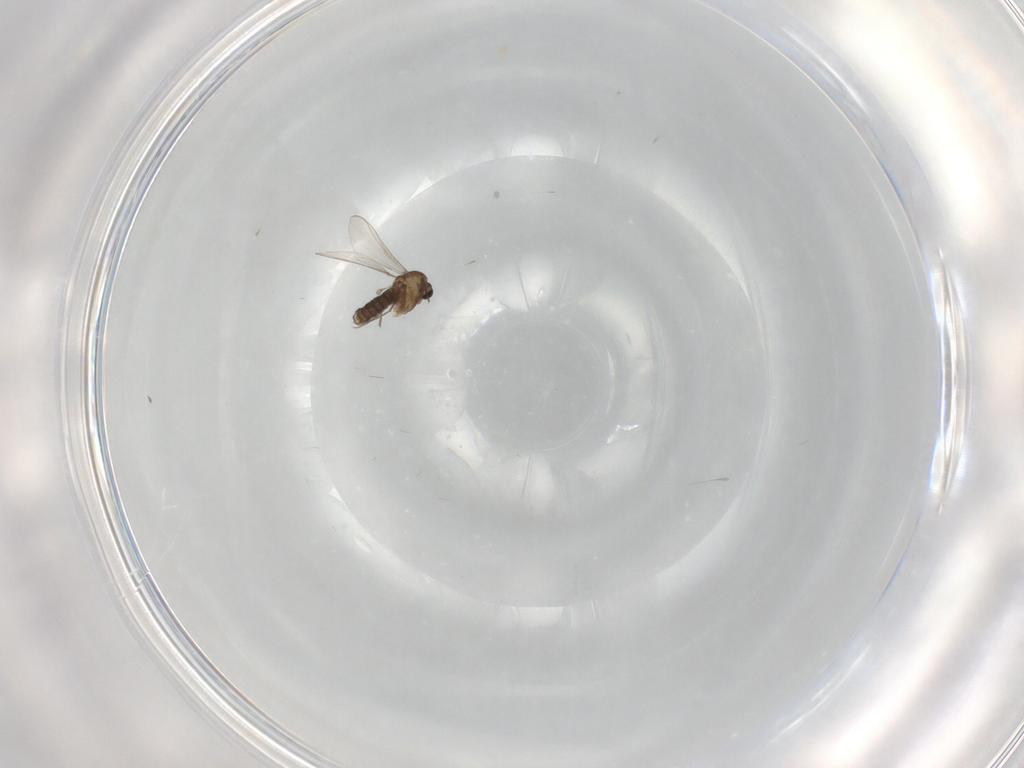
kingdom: Animalia
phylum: Arthropoda
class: Insecta
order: Diptera
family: Chironomidae
